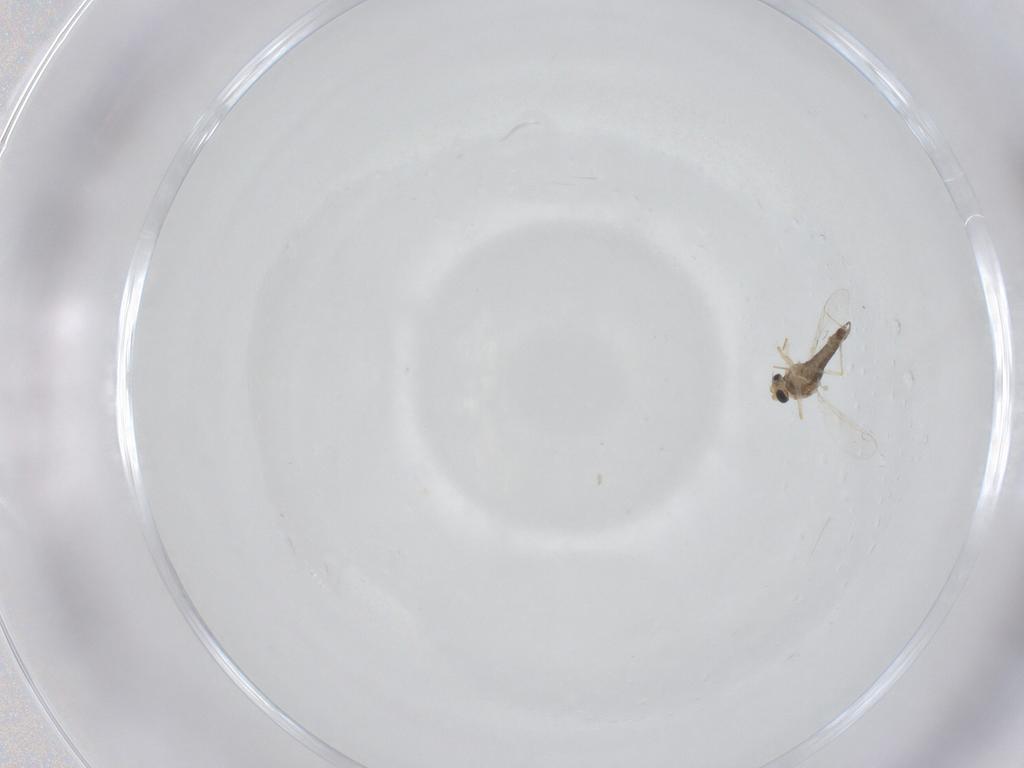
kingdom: Animalia
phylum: Arthropoda
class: Insecta
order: Diptera
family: Chironomidae
